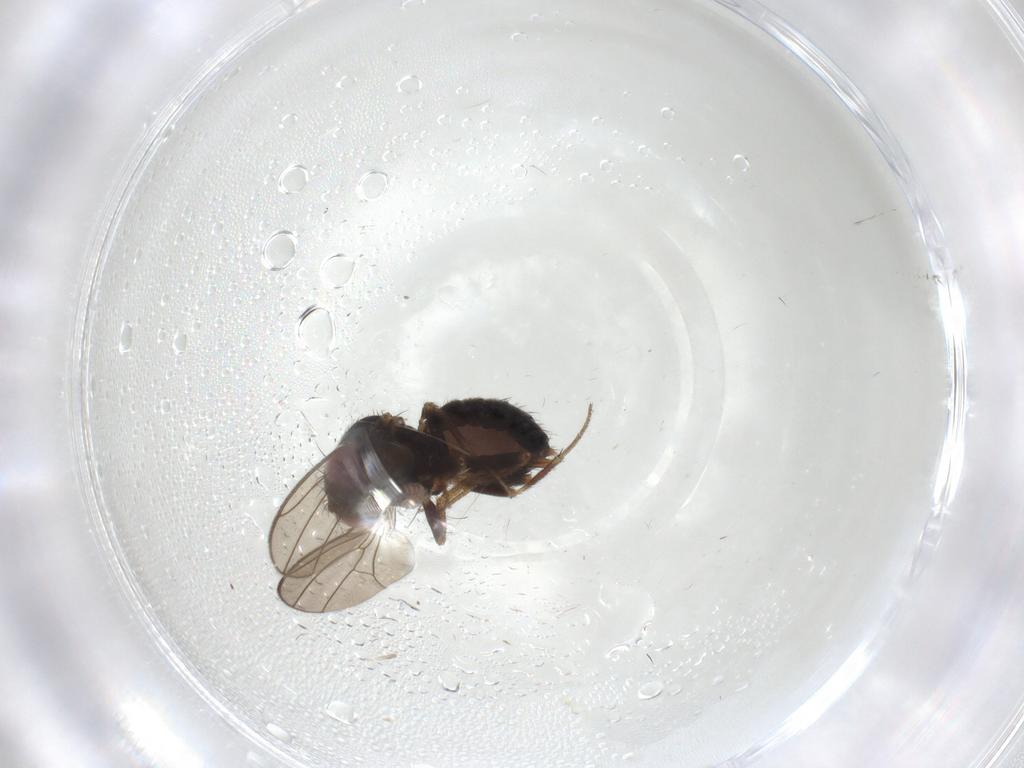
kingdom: Animalia
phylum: Arthropoda
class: Insecta
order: Diptera
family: Drosophilidae
